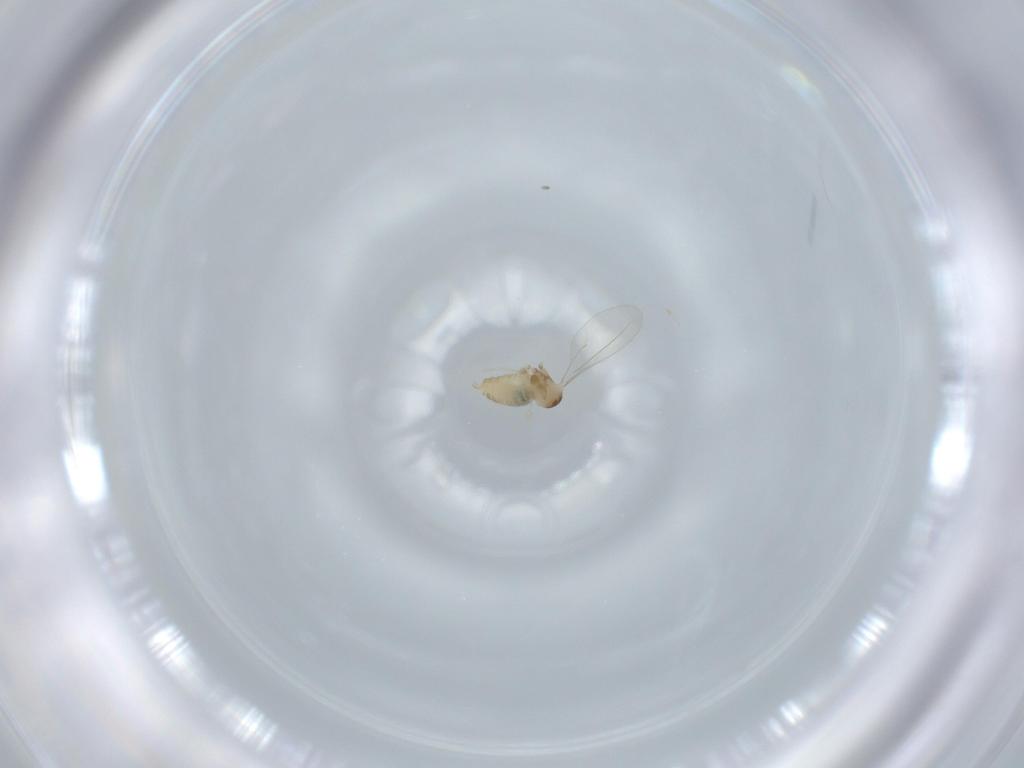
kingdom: Animalia
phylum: Arthropoda
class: Insecta
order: Diptera
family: Cecidomyiidae
